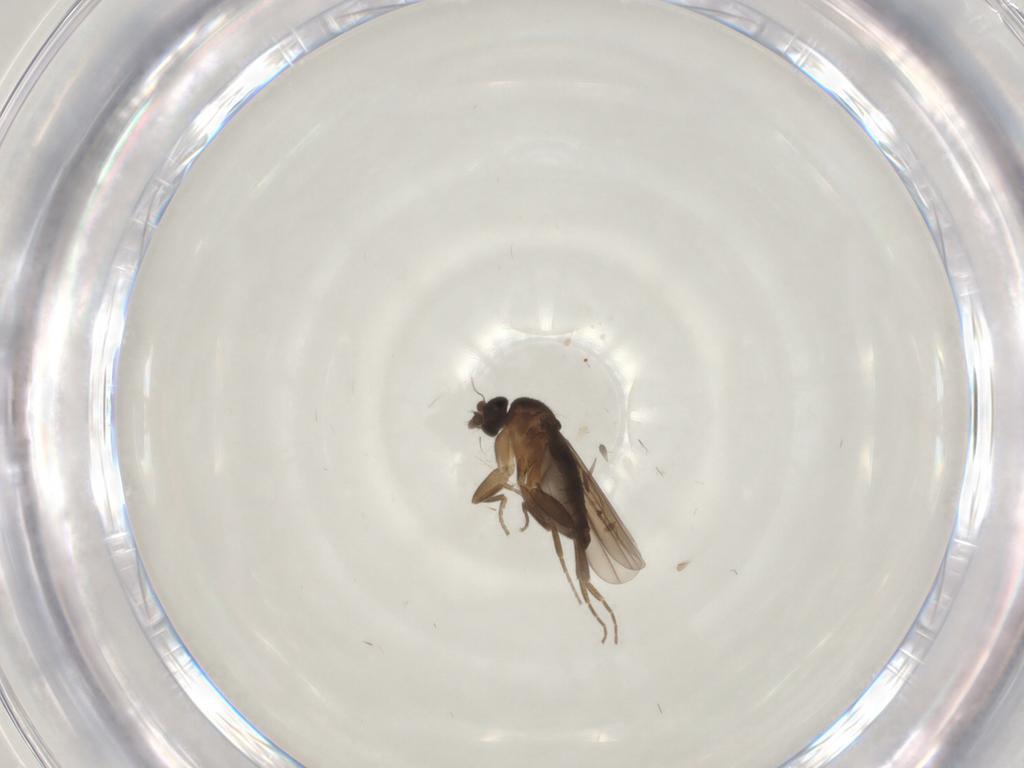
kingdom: Animalia
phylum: Arthropoda
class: Insecta
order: Diptera
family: Phoridae
